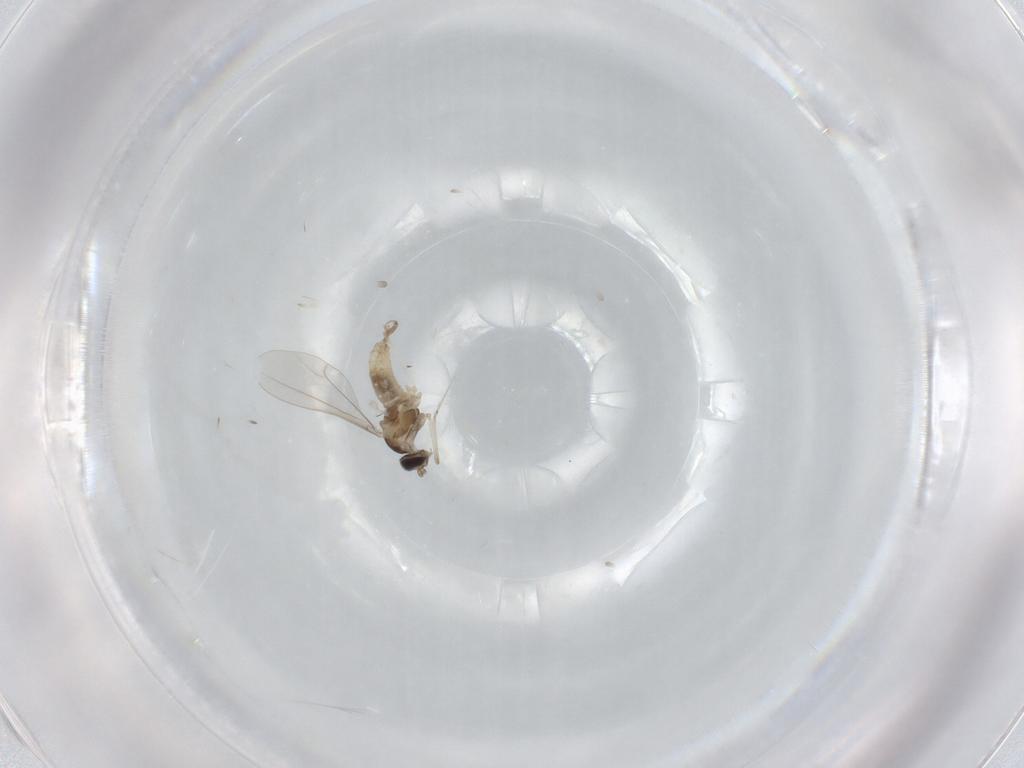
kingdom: Animalia
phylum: Arthropoda
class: Insecta
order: Diptera
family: Cecidomyiidae
